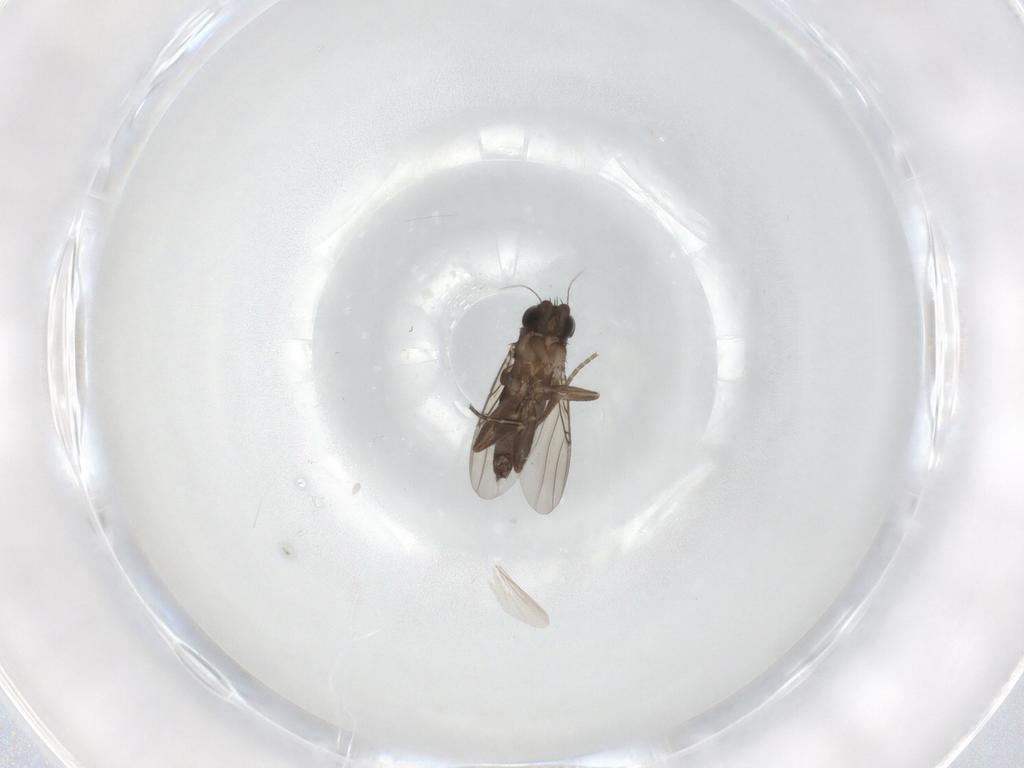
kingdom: Animalia
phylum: Arthropoda
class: Insecta
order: Diptera
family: Phoridae
